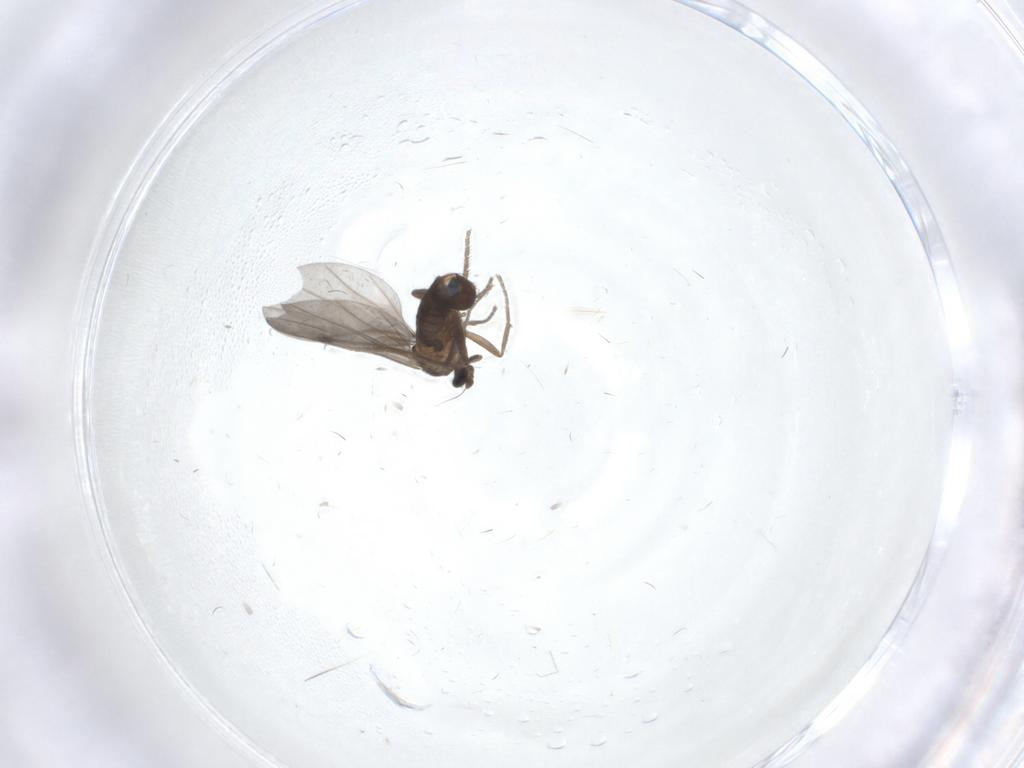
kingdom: Animalia
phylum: Arthropoda
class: Insecta
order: Diptera
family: Phoridae
